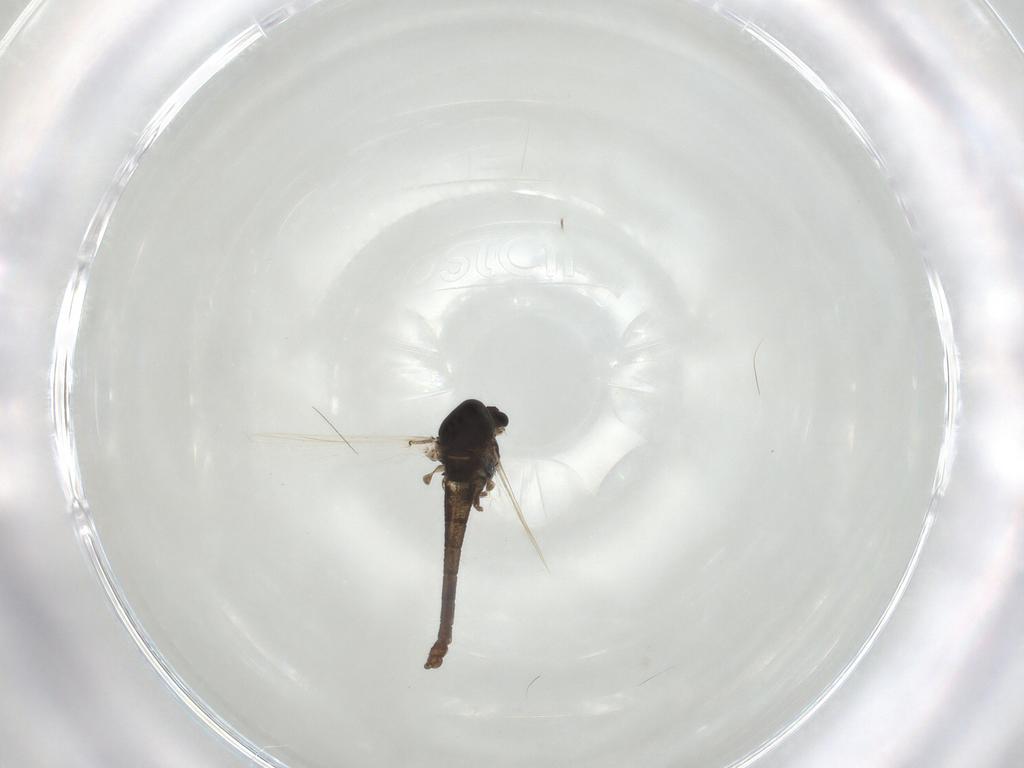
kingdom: Animalia
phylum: Arthropoda
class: Insecta
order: Diptera
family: Chironomidae
